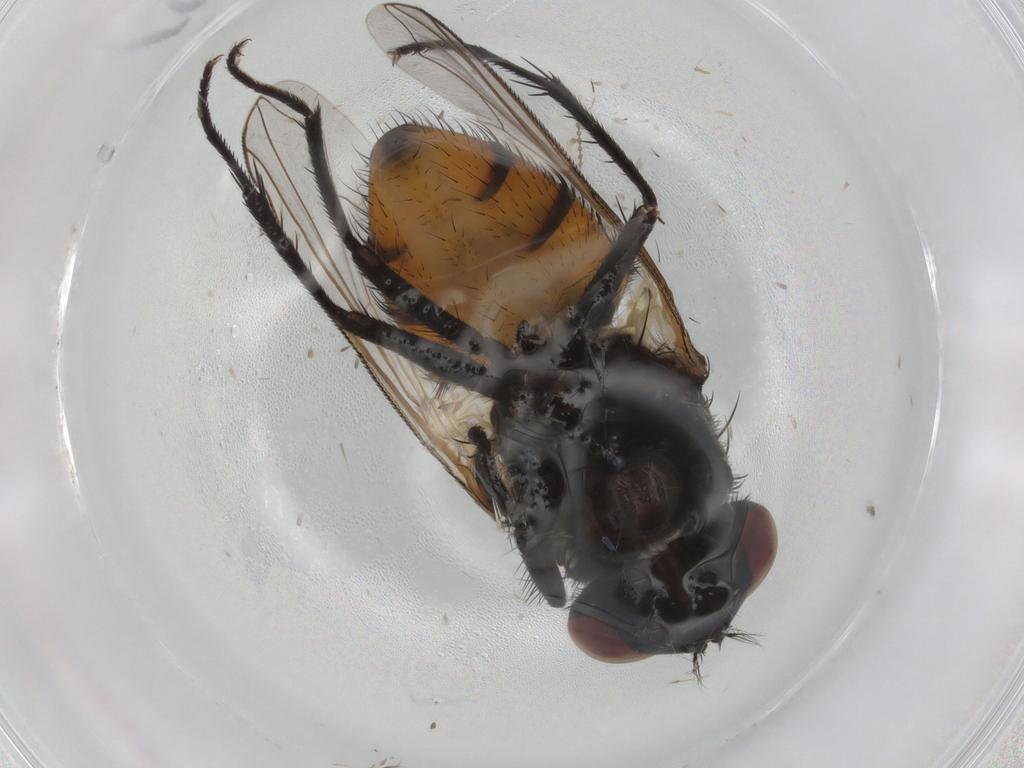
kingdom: Animalia
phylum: Arthropoda
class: Insecta
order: Diptera
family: Muscidae
